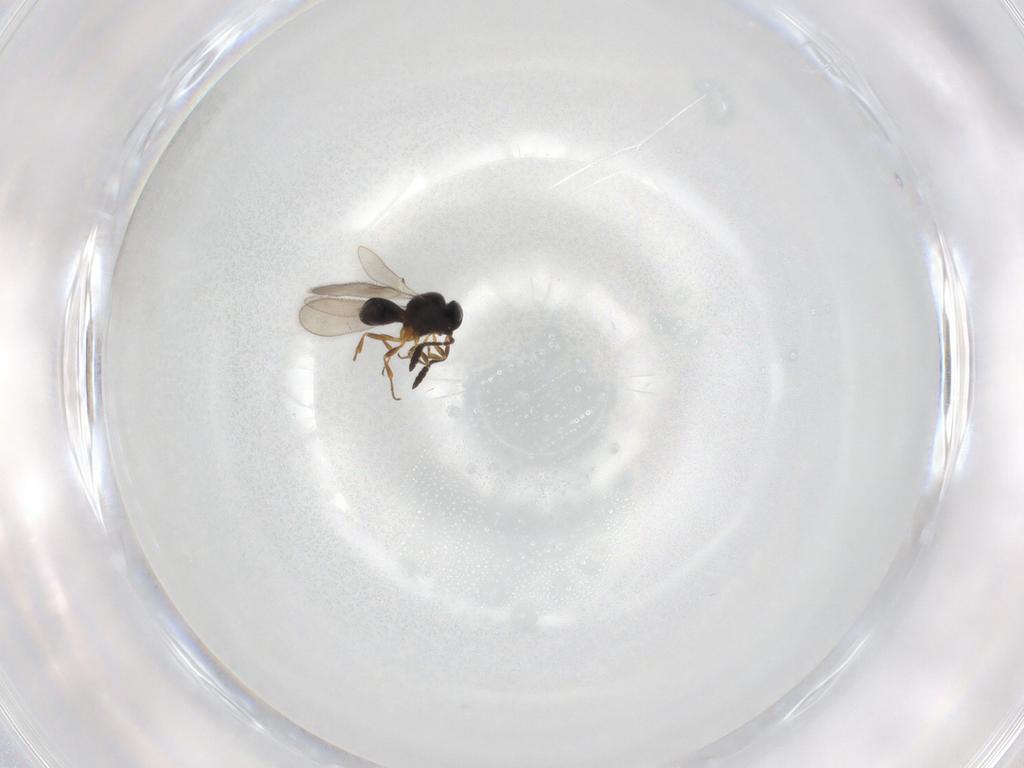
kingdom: Animalia
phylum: Arthropoda
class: Insecta
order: Hymenoptera
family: Scelionidae
